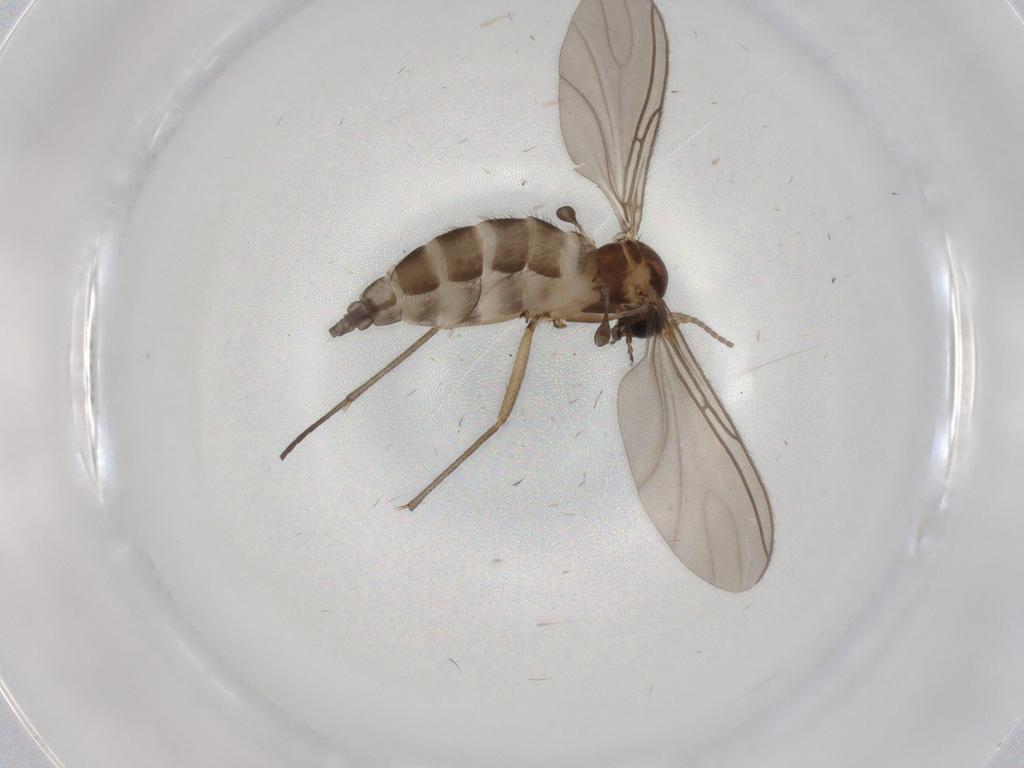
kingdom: Animalia
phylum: Arthropoda
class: Insecta
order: Diptera
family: Sciaridae
